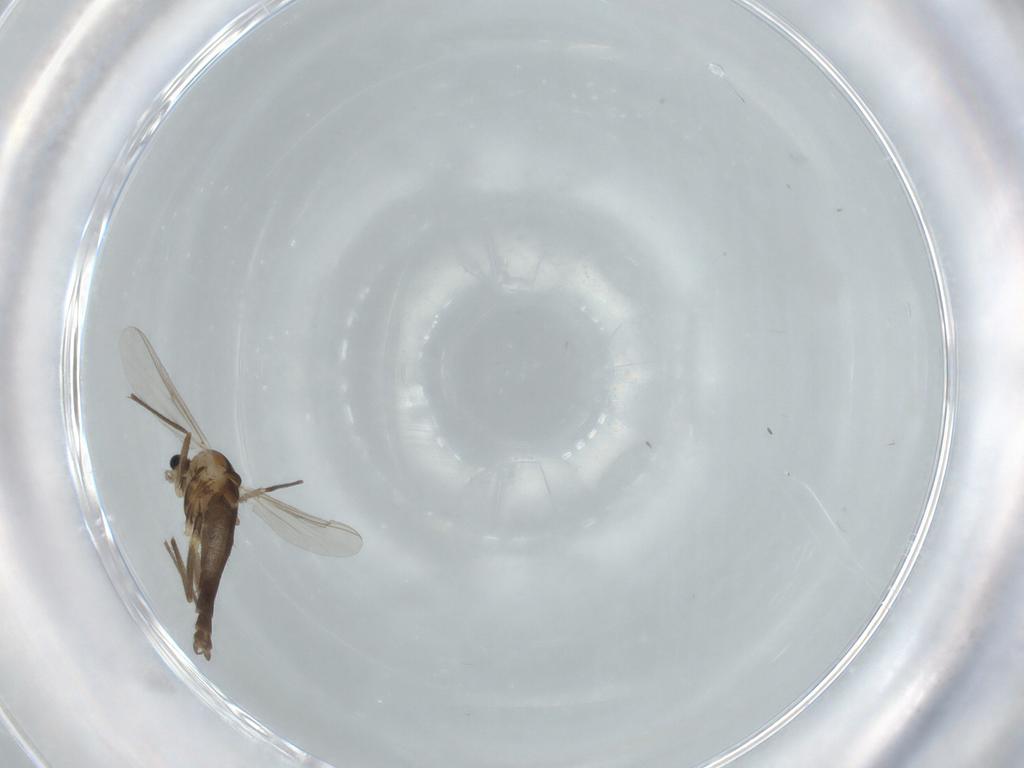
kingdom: Animalia
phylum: Arthropoda
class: Insecta
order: Diptera
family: Chironomidae
